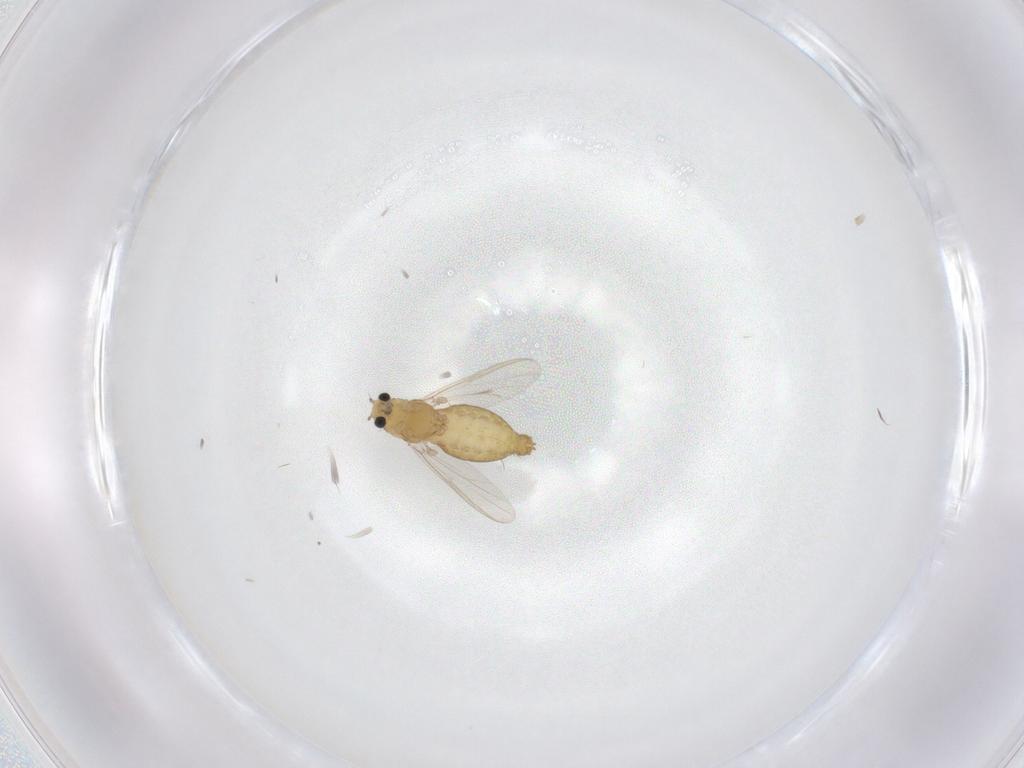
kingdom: Animalia
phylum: Arthropoda
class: Insecta
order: Diptera
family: Chironomidae
